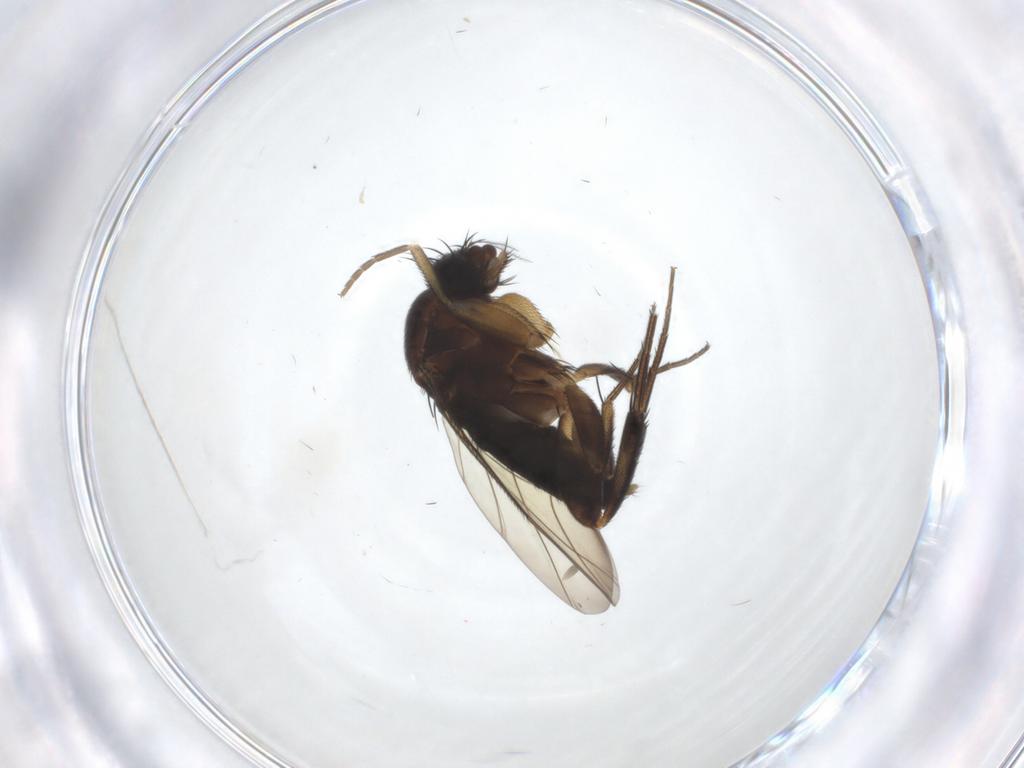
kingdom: Animalia
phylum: Arthropoda
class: Insecta
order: Diptera
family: Phoridae
